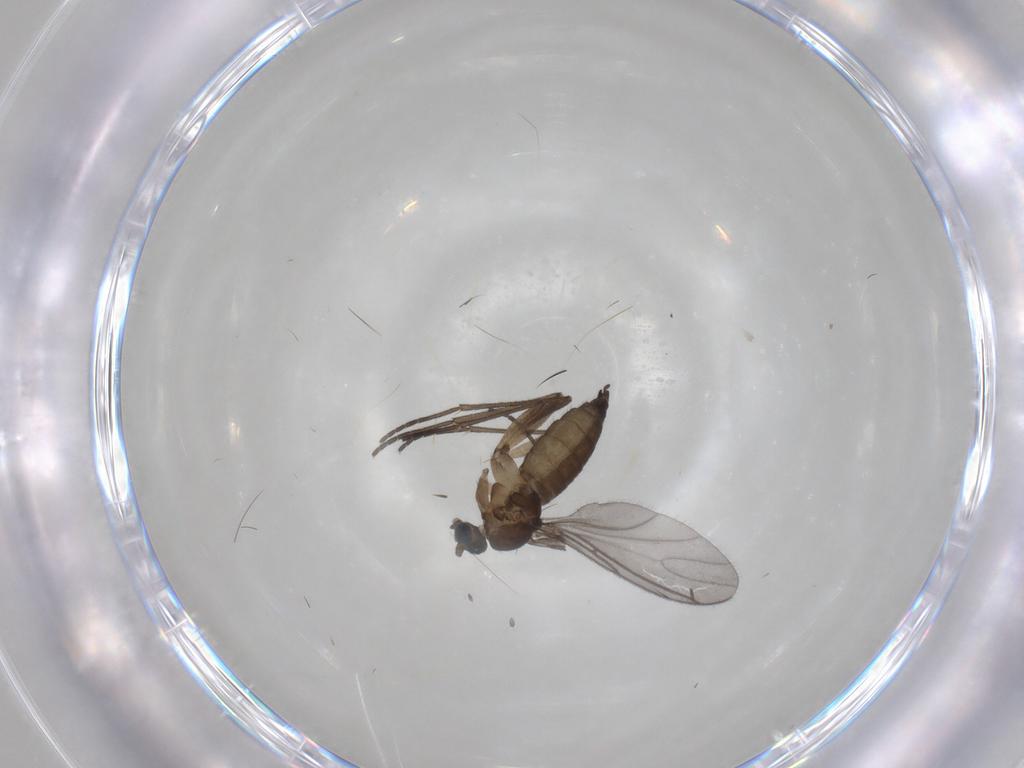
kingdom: Animalia
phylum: Arthropoda
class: Insecta
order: Diptera
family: Sciaridae
